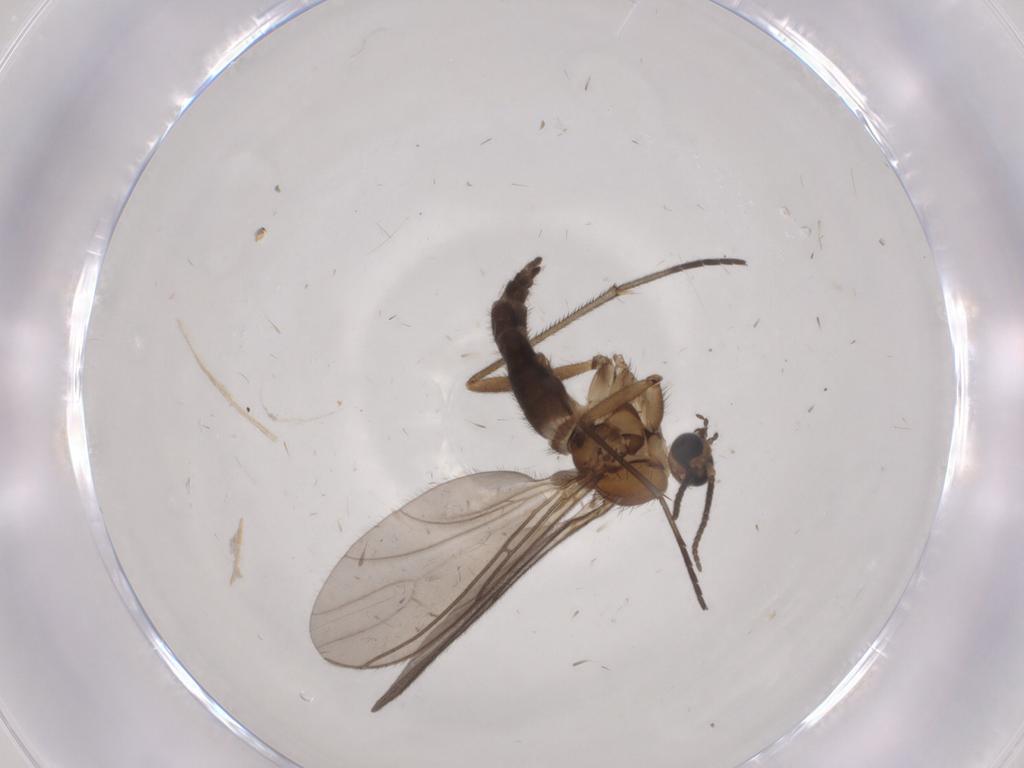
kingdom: Animalia
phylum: Arthropoda
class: Insecta
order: Diptera
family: Sciaridae
